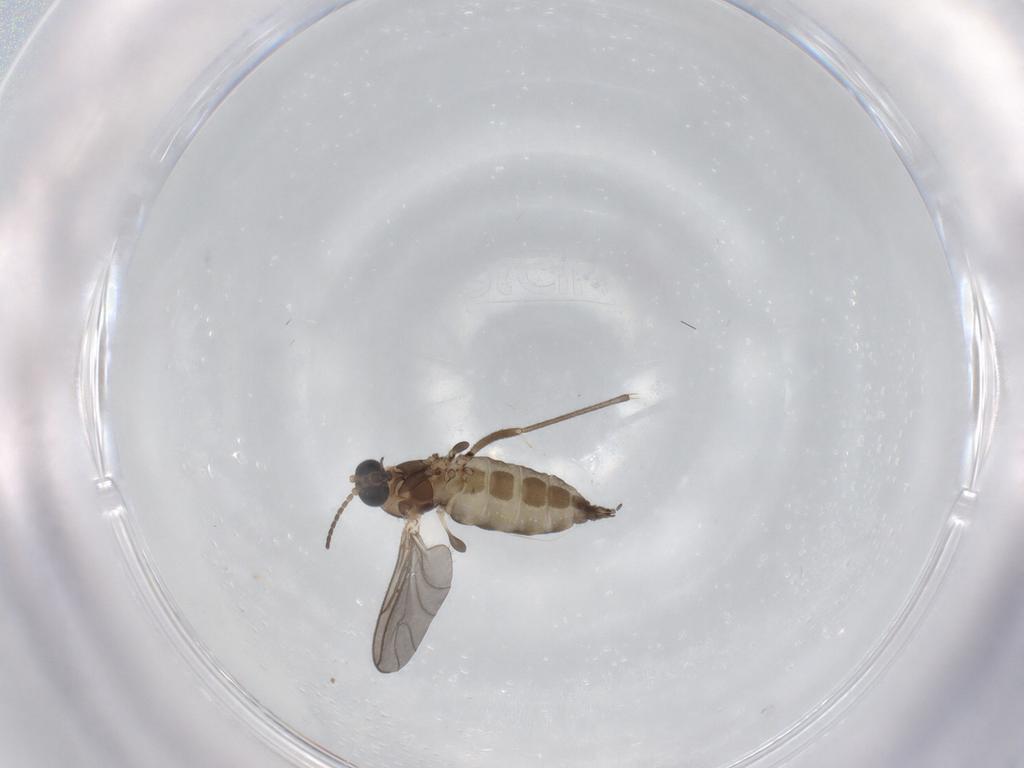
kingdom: Animalia
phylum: Arthropoda
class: Insecta
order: Diptera
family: Sciaridae
